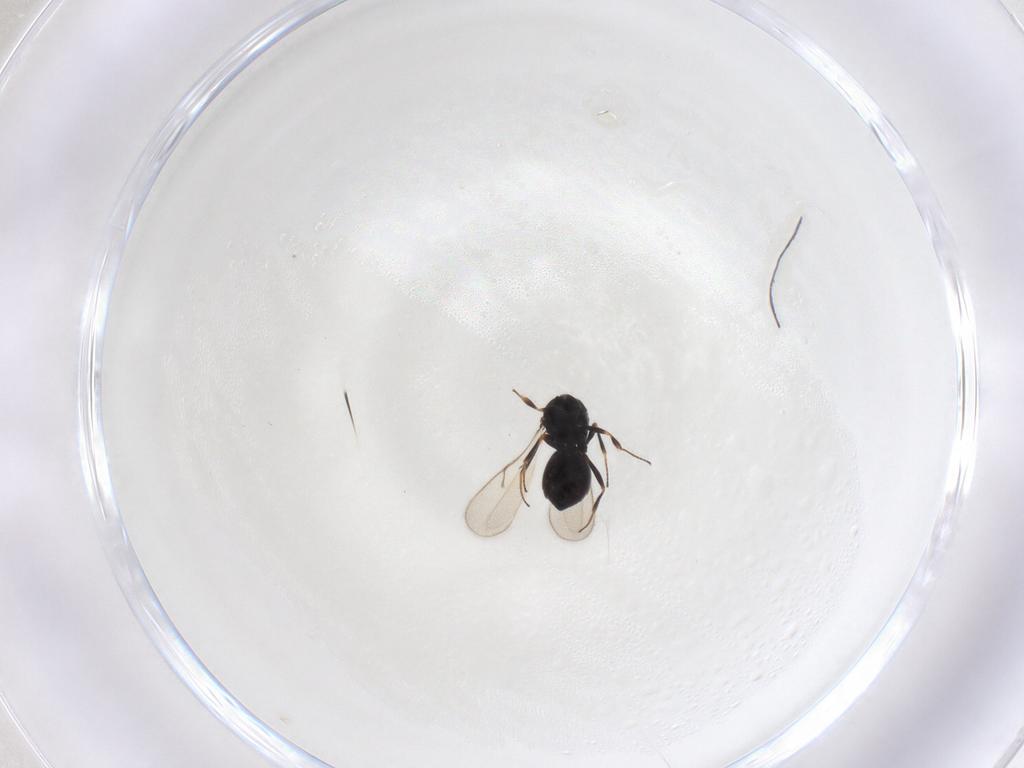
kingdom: Animalia
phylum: Arthropoda
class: Insecta
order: Hymenoptera
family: Scelionidae
